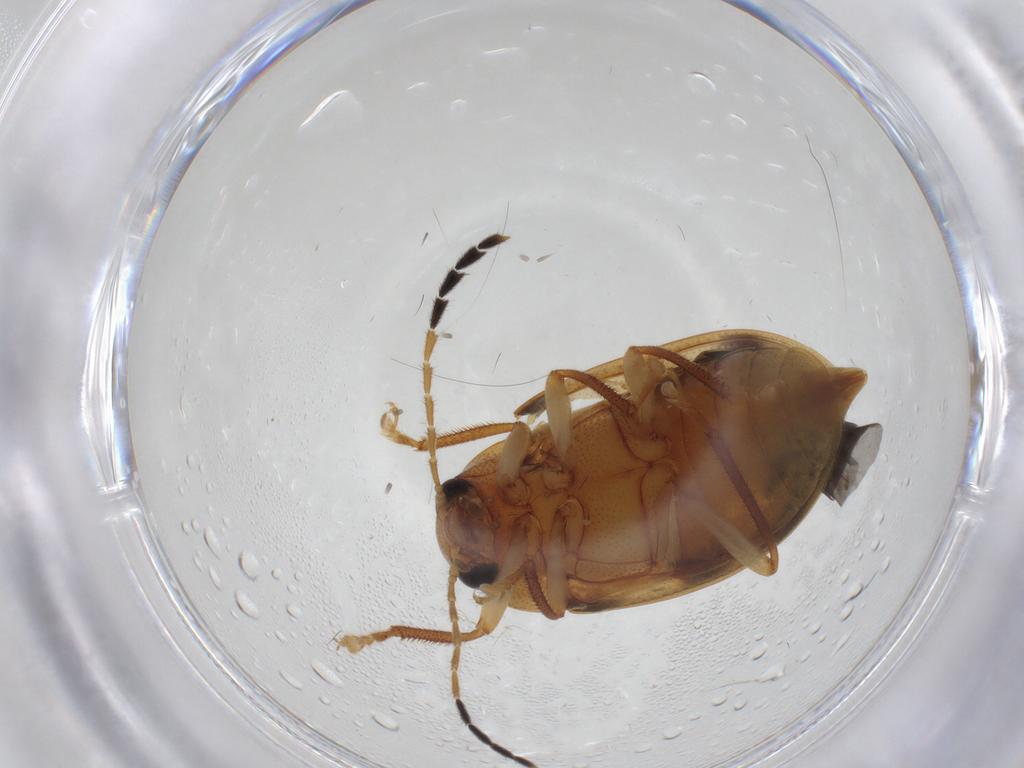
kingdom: Animalia
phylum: Arthropoda
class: Insecta
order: Coleoptera
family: Ptilodactylidae
